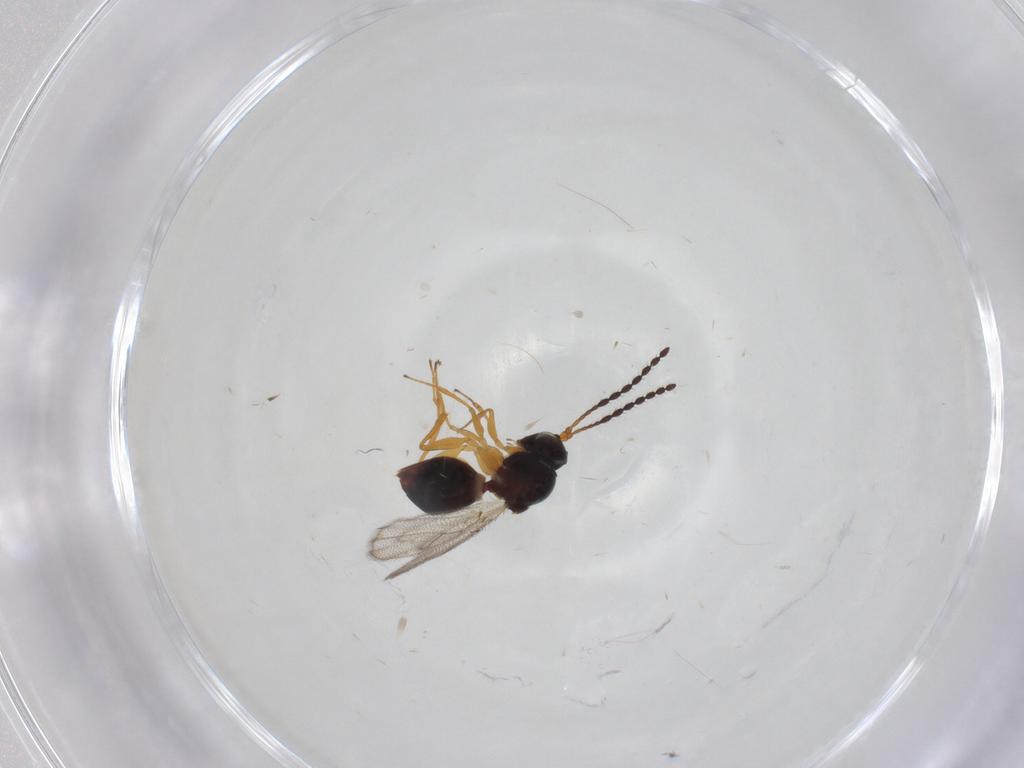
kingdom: Animalia
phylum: Arthropoda
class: Insecta
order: Hymenoptera
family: Figitidae
